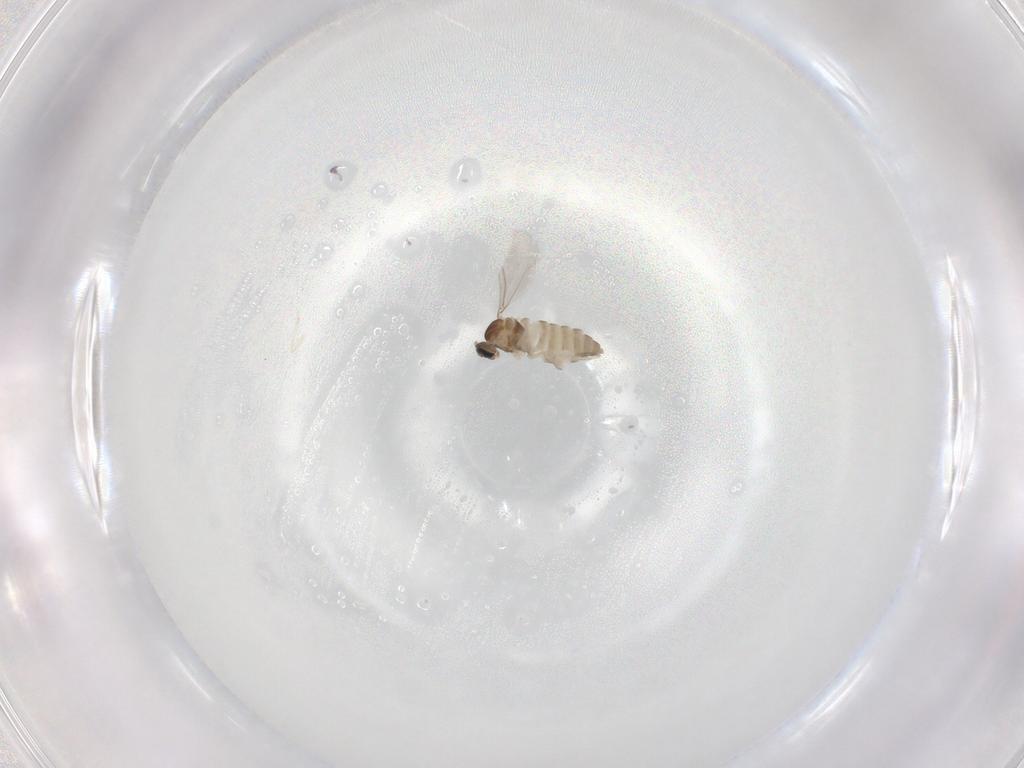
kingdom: Animalia
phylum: Arthropoda
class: Insecta
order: Diptera
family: Cecidomyiidae
